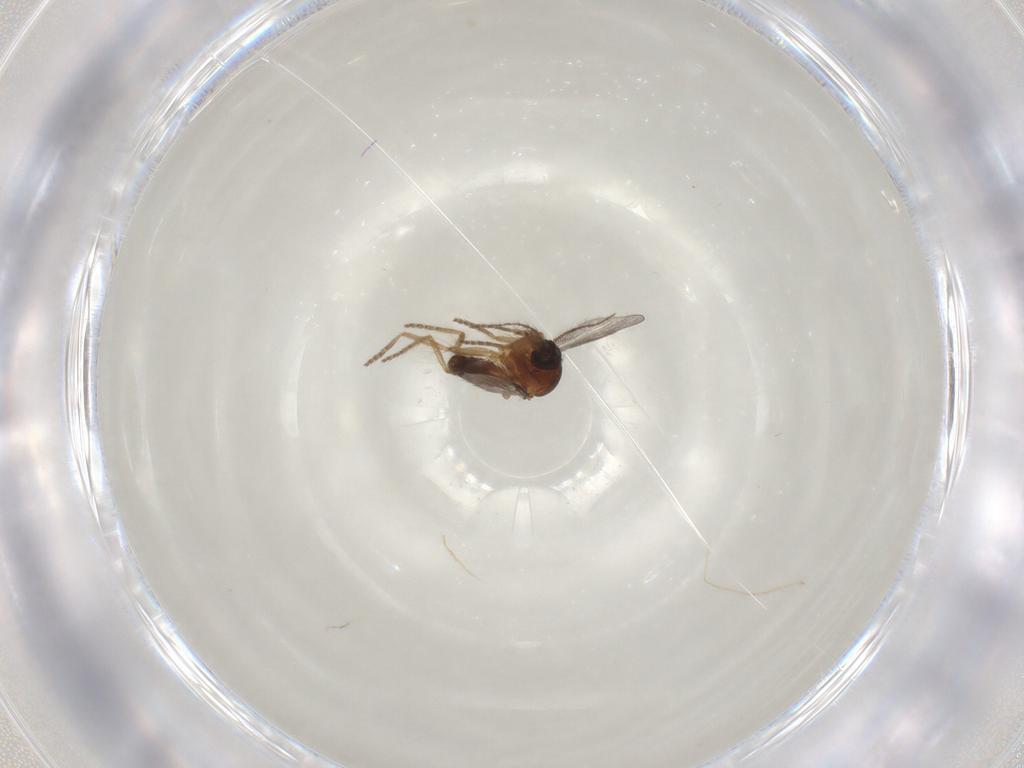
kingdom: Animalia
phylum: Arthropoda
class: Insecta
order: Diptera
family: Ceratopogonidae
